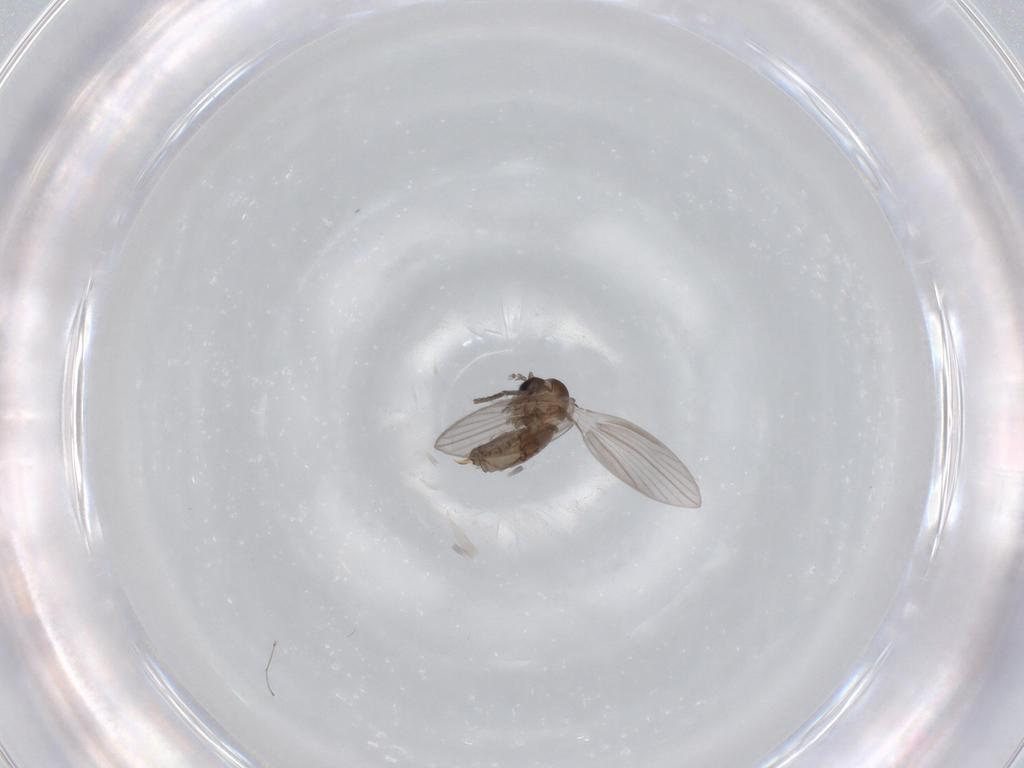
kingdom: Animalia
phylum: Arthropoda
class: Insecta
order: Diptera
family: Psychodidae
